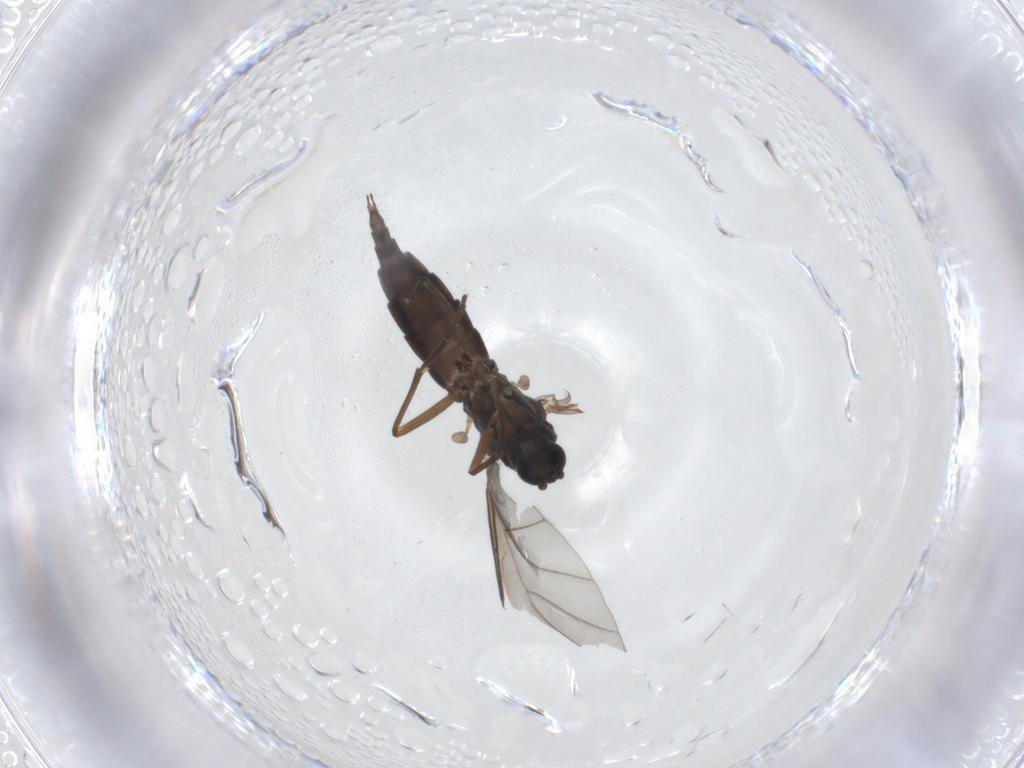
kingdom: Animalia
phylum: Arthropoda
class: Insecta
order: Diptera
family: Sciaridae
